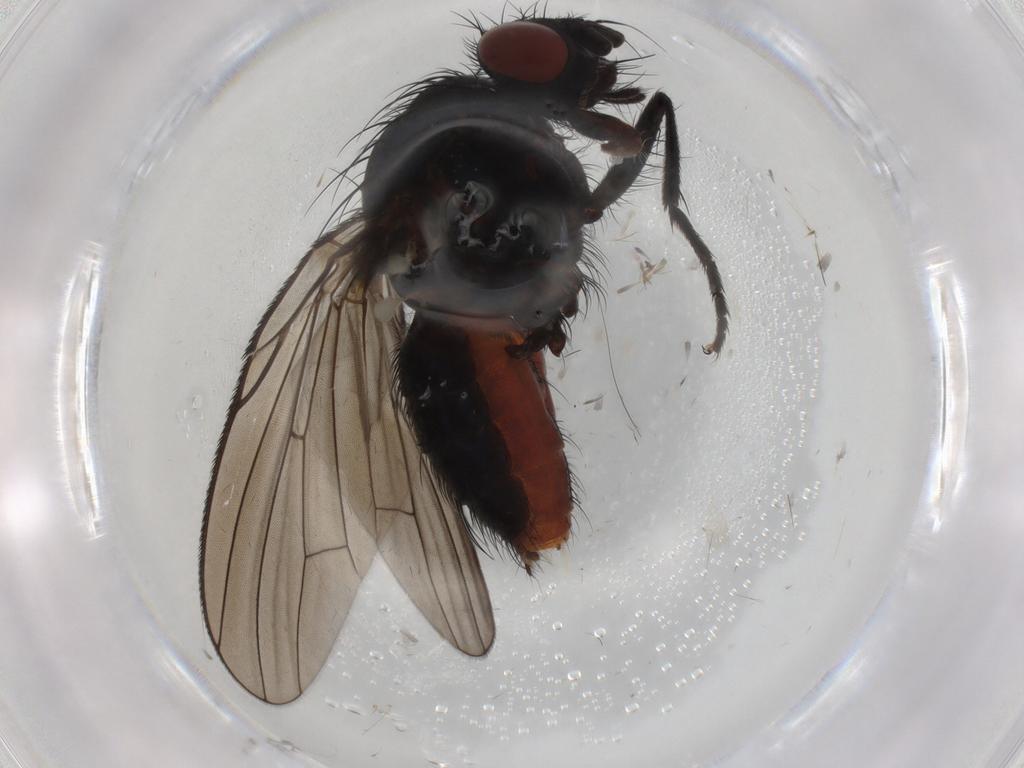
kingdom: Animalia
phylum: Arthropoda
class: Insecta
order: Diptera
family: Anthomyiidae
